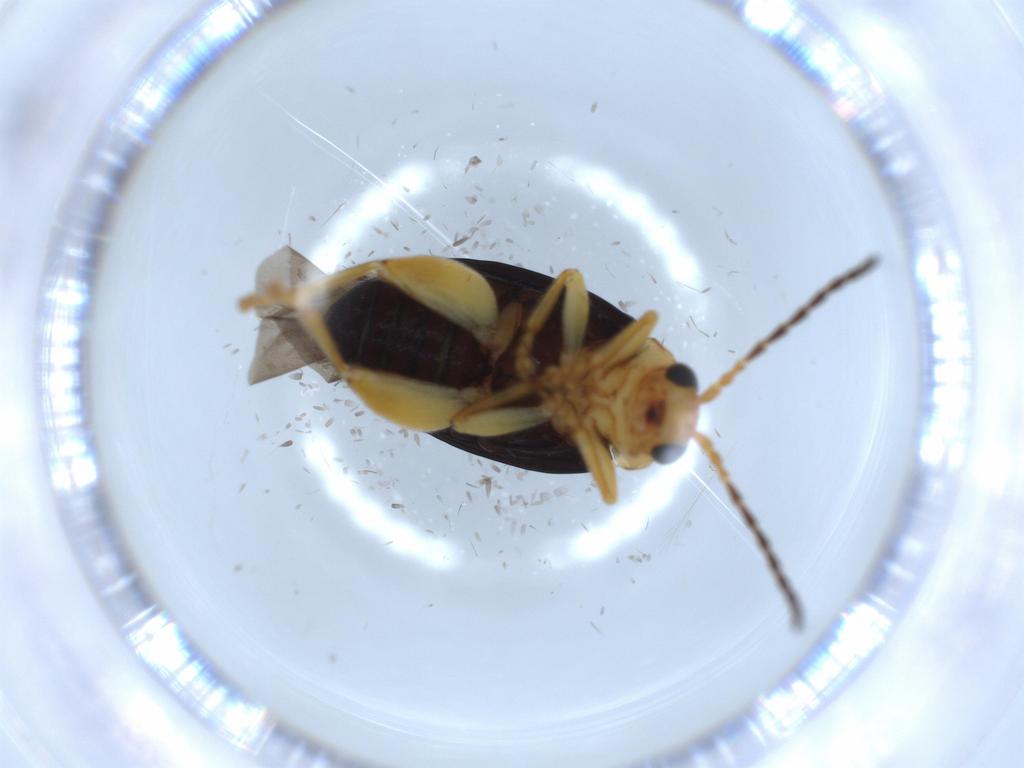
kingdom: Animalia
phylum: Arthropoda
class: Insecta
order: Coleoptera
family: Chrysomelidae
